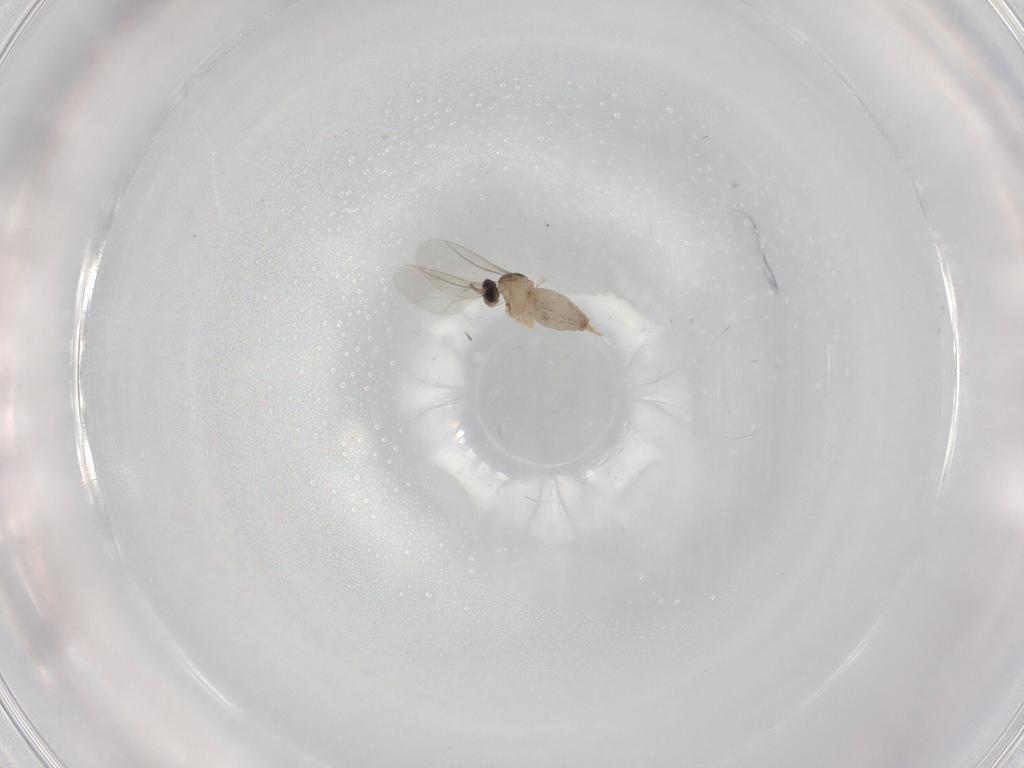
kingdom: Animalia
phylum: Arthropoda
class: Insecta
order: Diptera
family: Cecidomyiidae
